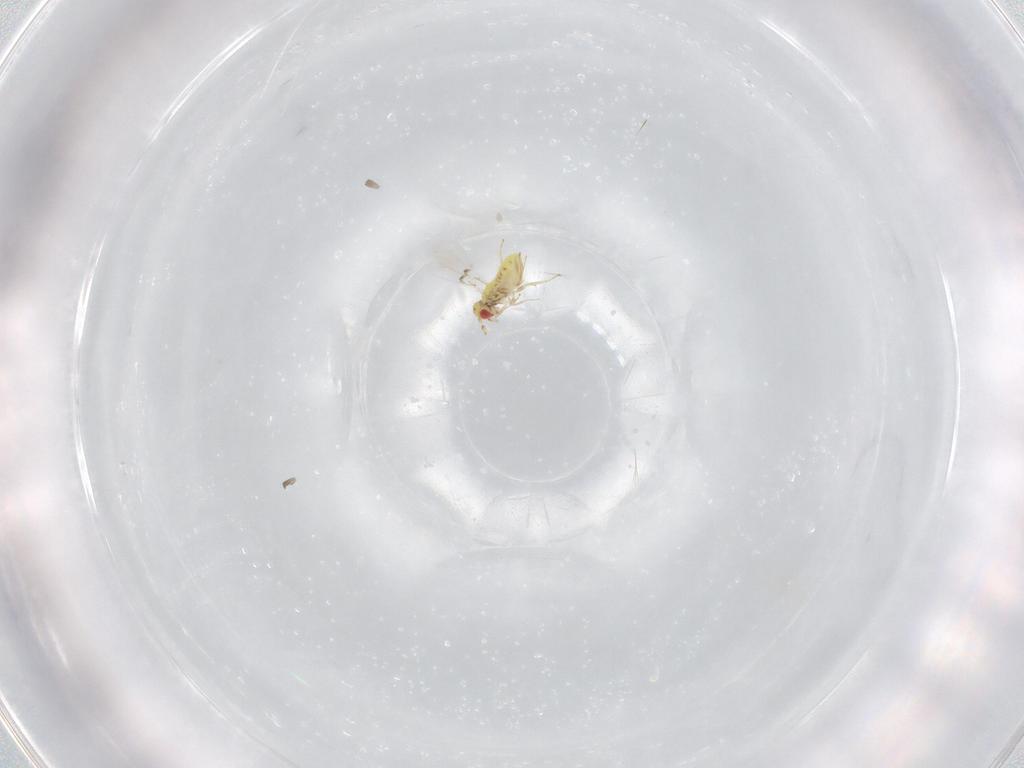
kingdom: Animalia
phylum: Arthropoda
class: Insecta
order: Hymenoptera
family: Trichogrammatidae
